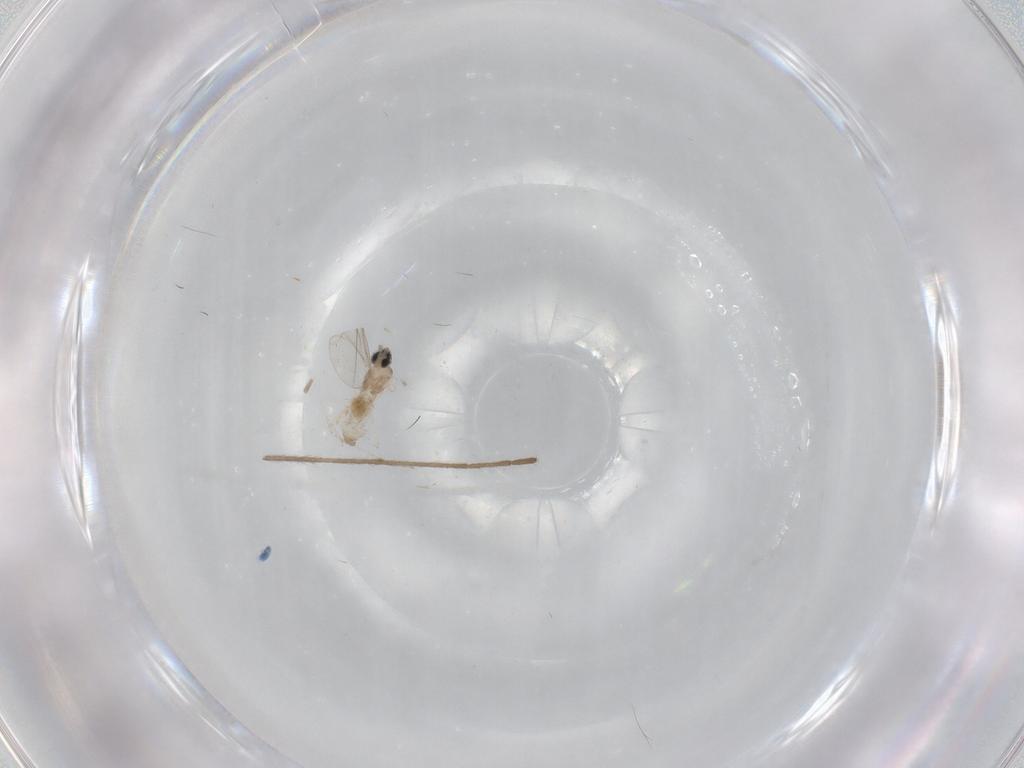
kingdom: Animalia
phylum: Arthropoda
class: Insecta
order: Diptera
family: Cecidomyiidae
